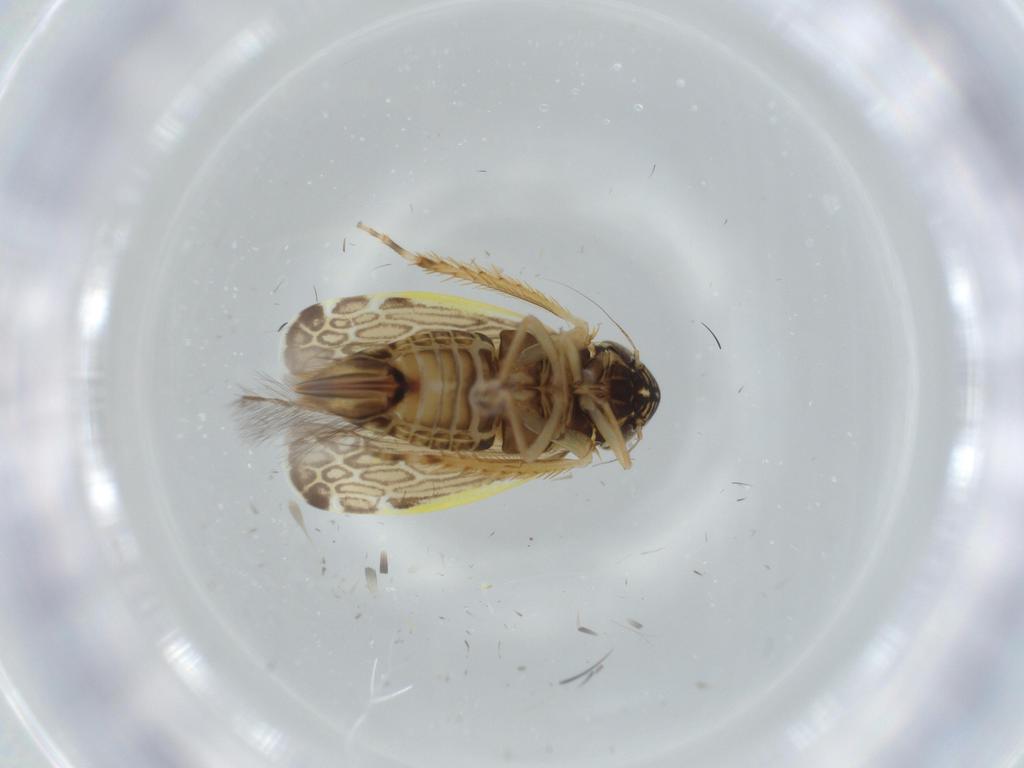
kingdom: Animalia
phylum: Arthropoda
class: Insecta
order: Hemiptera
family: Cicadellidae
